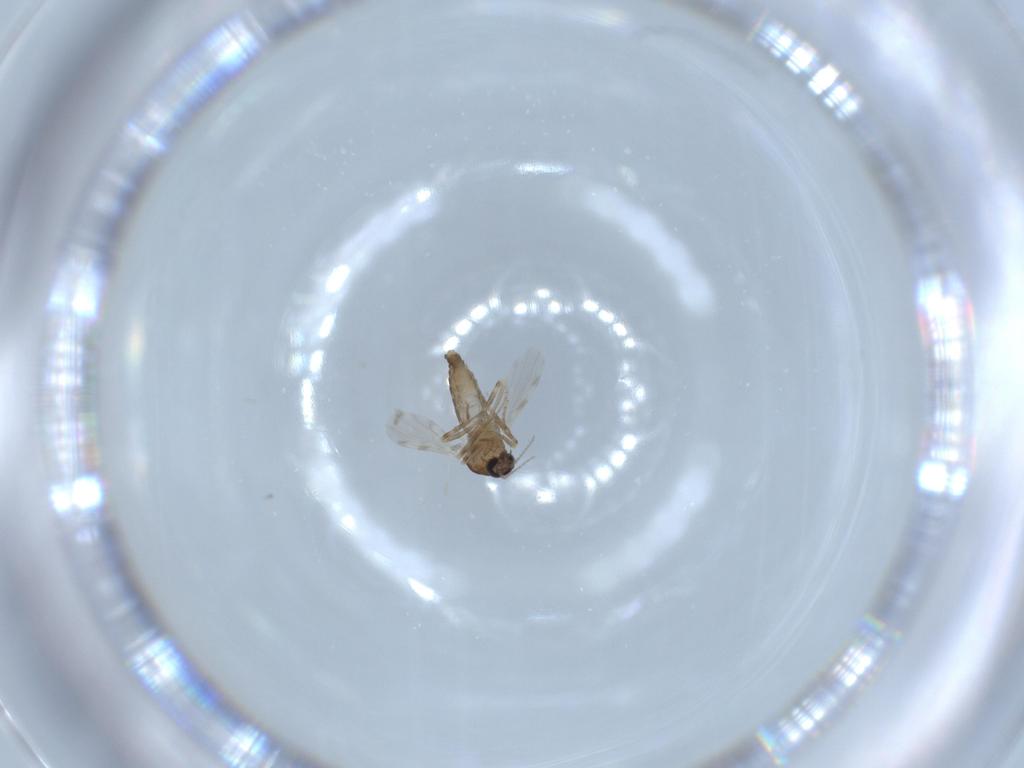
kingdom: Animalia
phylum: Arthropoda
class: Insecta
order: Diptera
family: Ceratopogonidae
